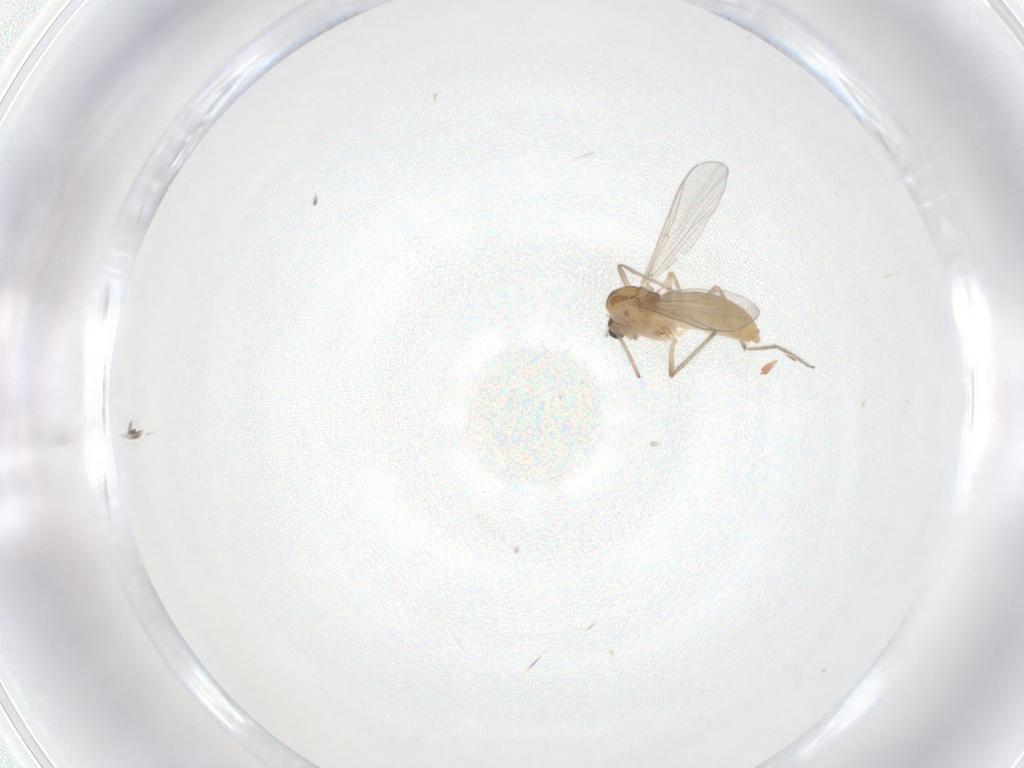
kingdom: Animalia
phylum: Arthropoda
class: Insecta
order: Diptera
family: Chironomidae
